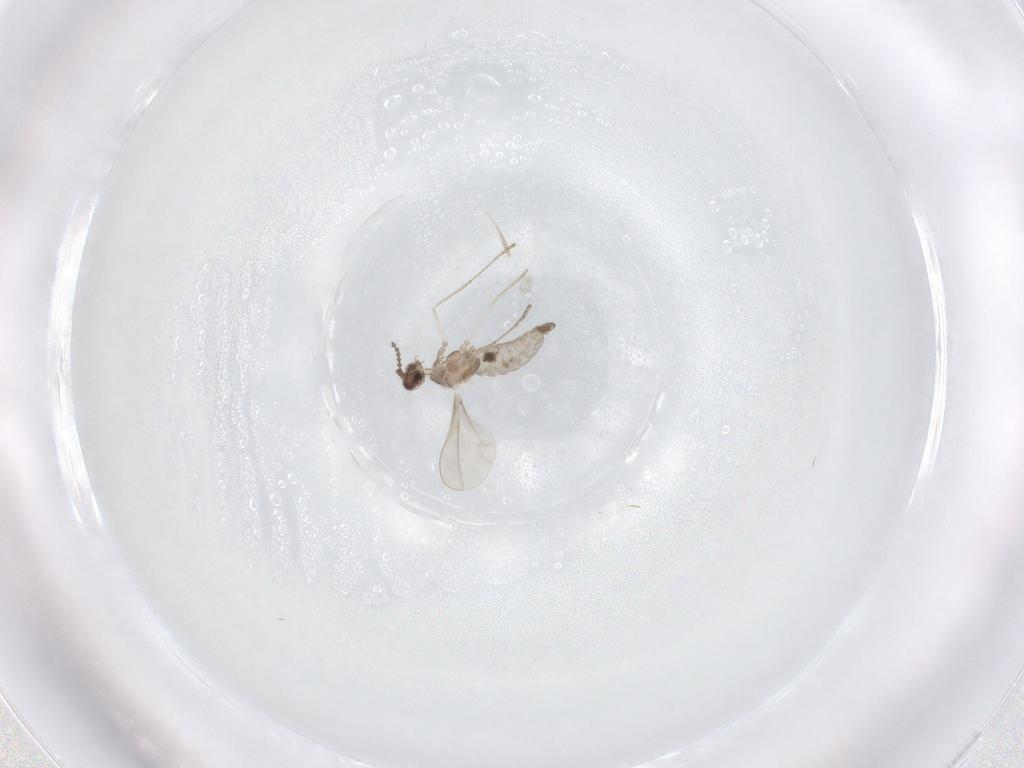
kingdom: Animalia
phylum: Arthropoda
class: Insecta
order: Diptera
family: Cecidomyiidae
